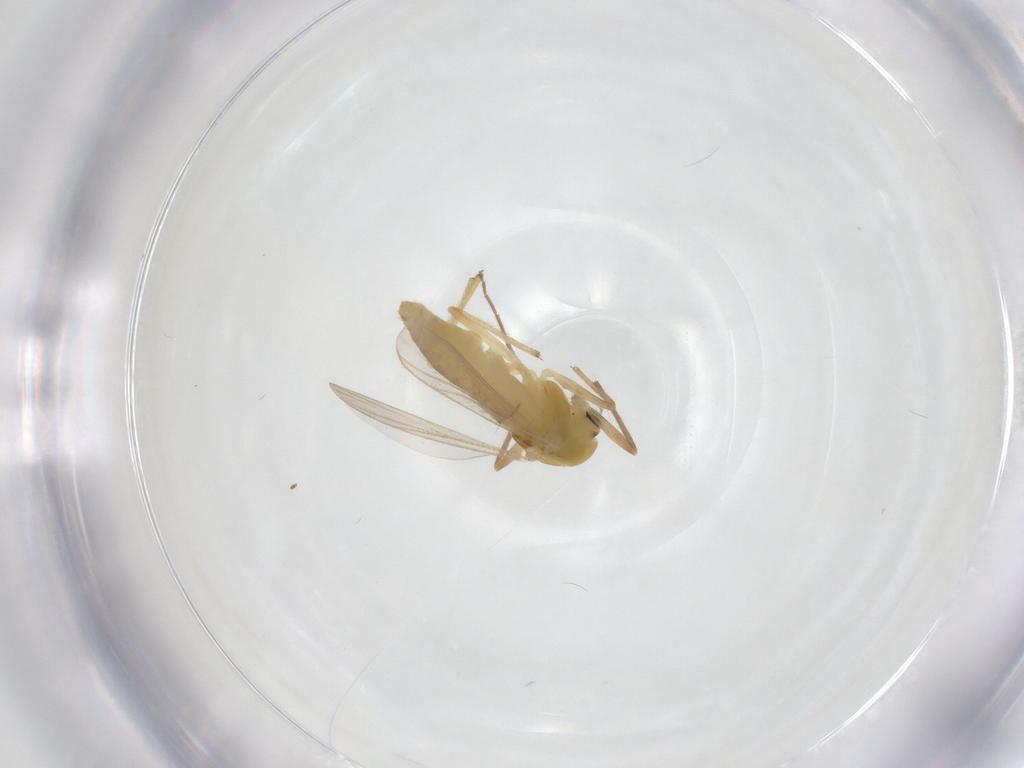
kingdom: Animalia
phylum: Arthropoda
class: Insecta
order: Diptera
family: Chironomidae
